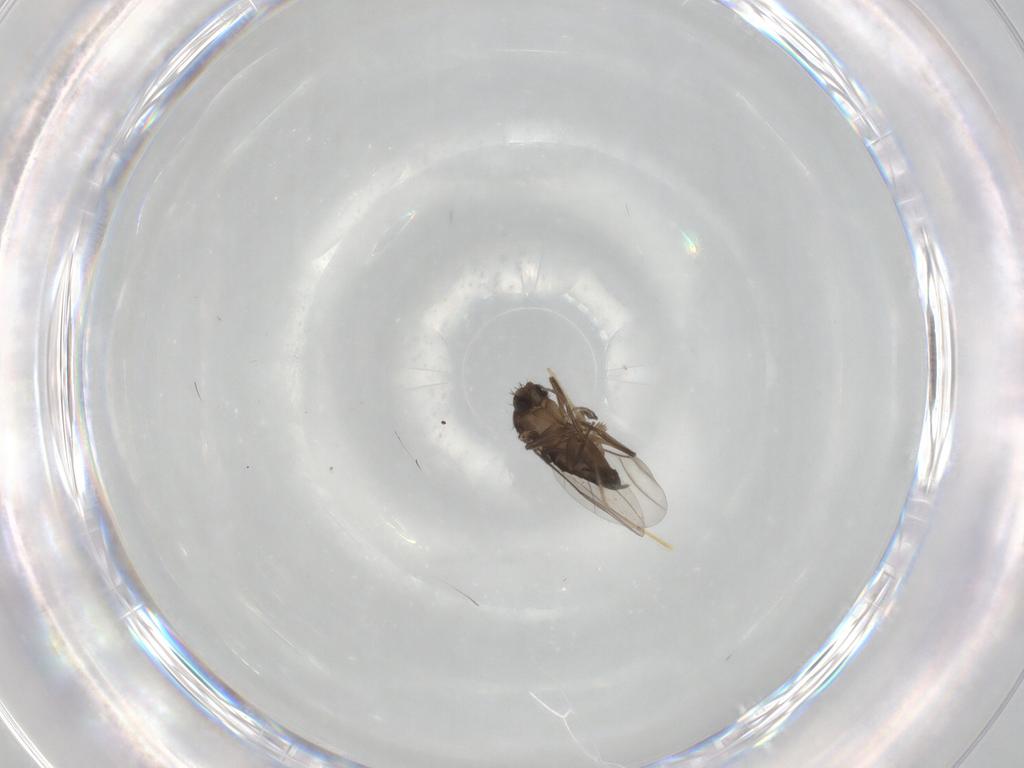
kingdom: Animalia
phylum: Arthropoda
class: Insecta
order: Diptera
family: Phoridae
